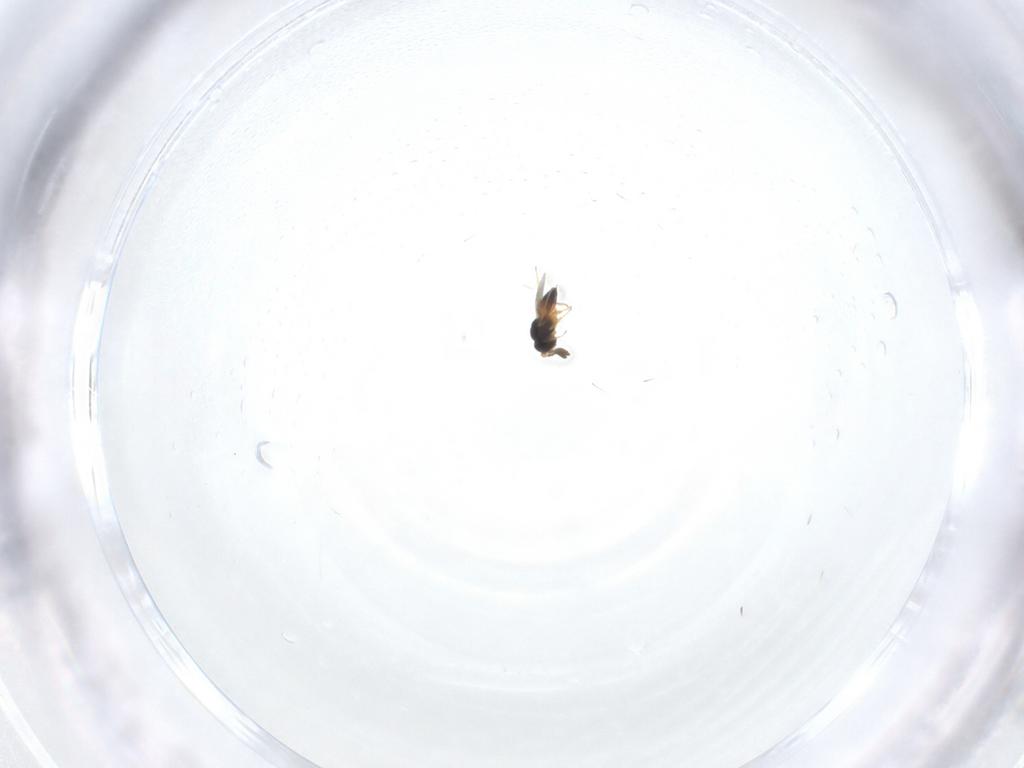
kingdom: Animalia
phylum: Arthropoda
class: Insecta
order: Hymenoptera
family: Scelionidae
